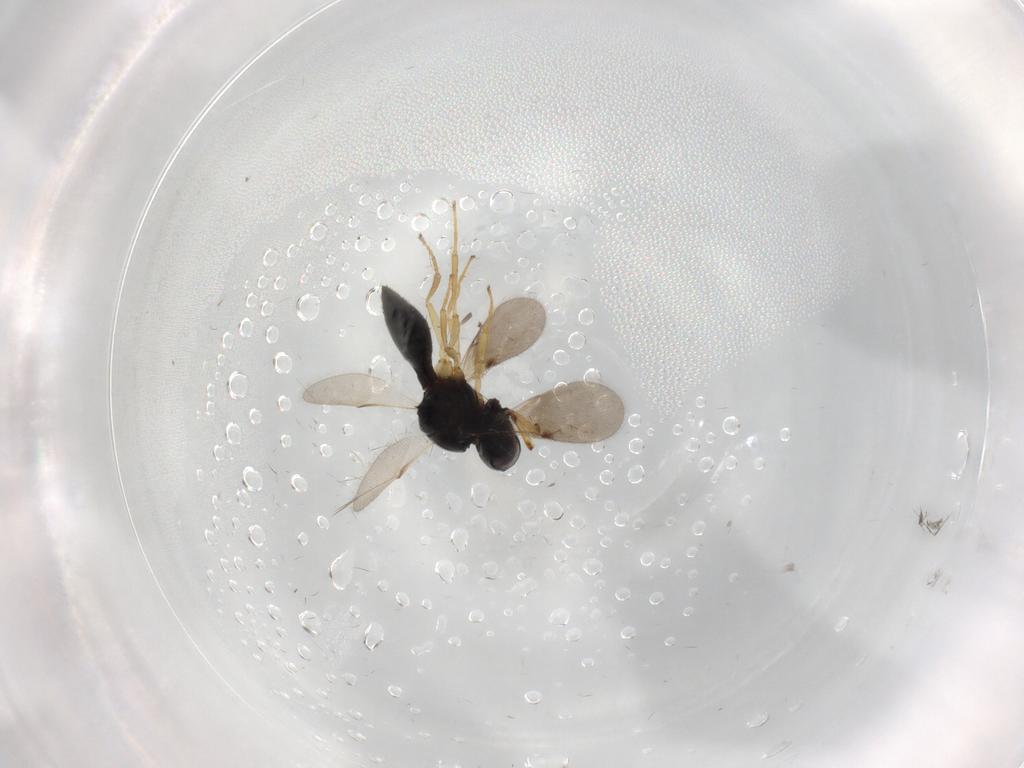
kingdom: Animalia
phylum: Arthropoda
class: Insecta
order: Hymenoptera
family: Scelionidae
